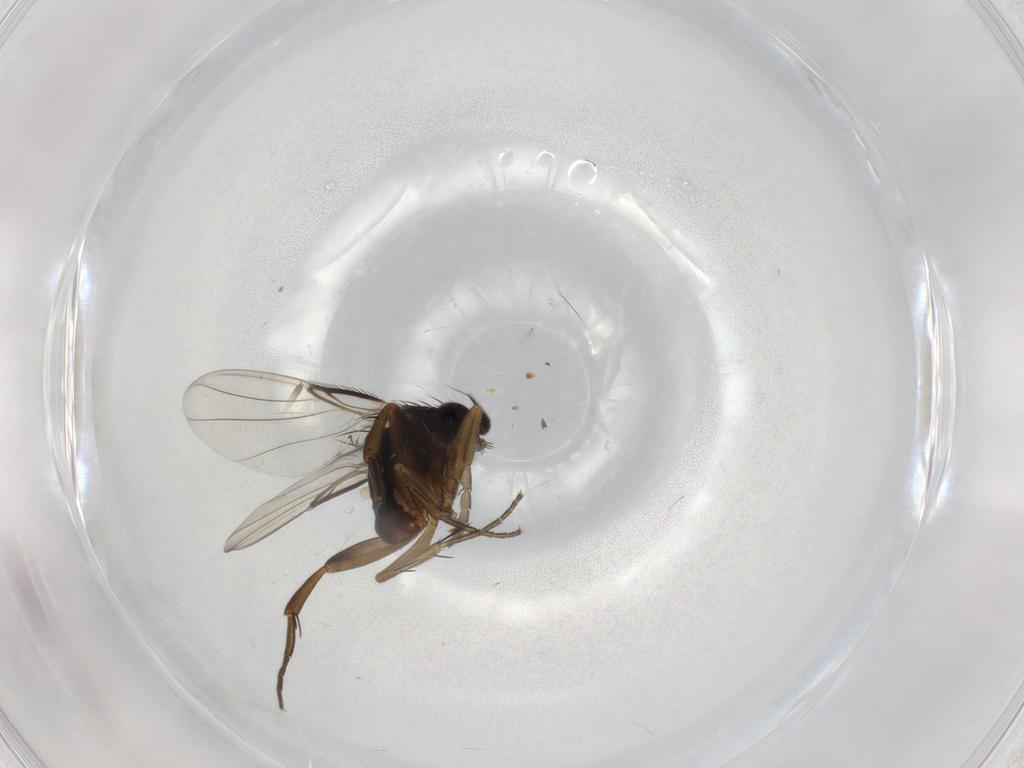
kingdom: Animalia
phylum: Arthropoda
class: Insecta
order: Diptera
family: Phoridae
